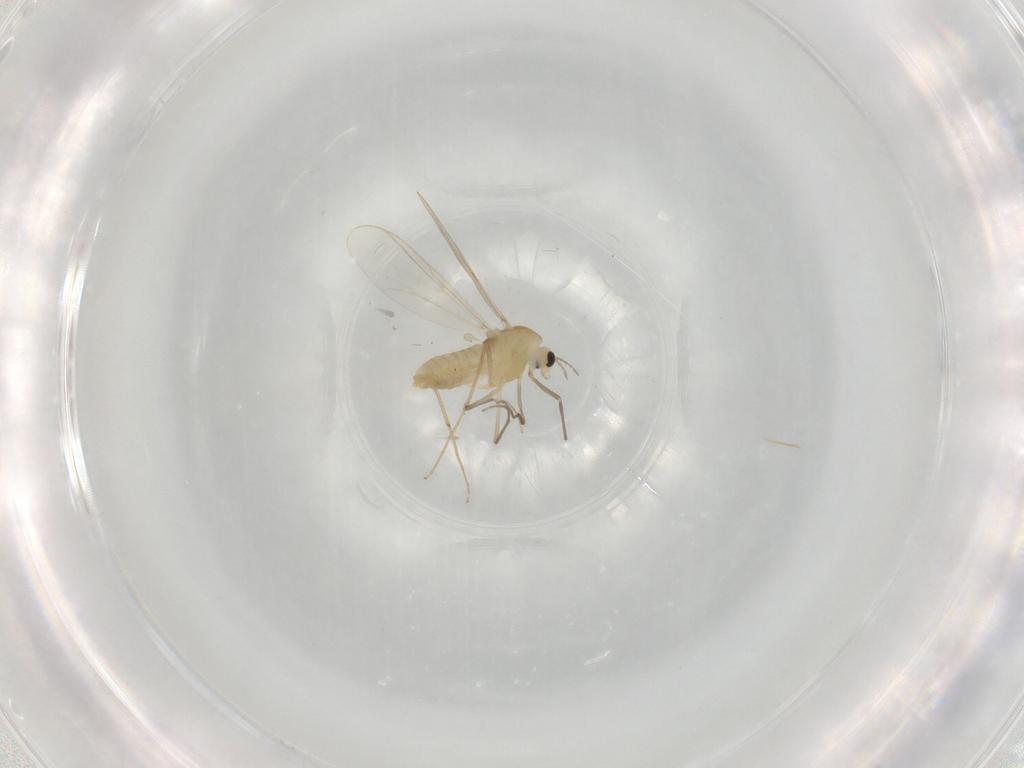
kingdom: Animalia
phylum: Arthropoda
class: Insecta
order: Diptera
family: Chironomidae
